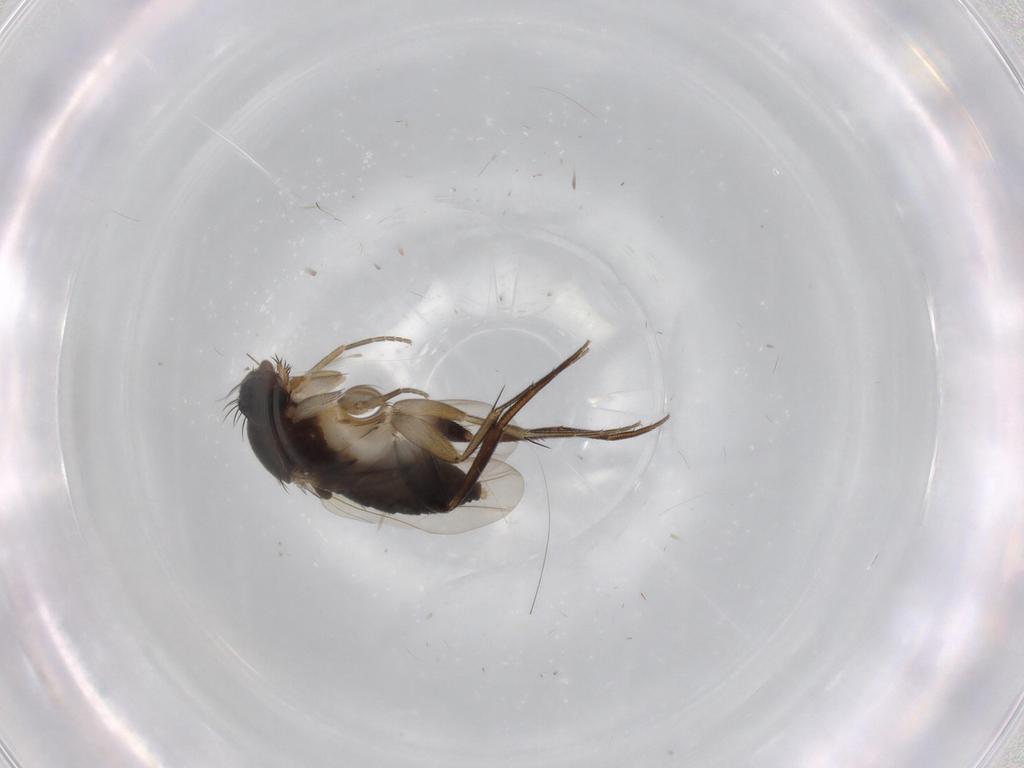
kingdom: Animalia
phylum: Arthropoda
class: Insecta
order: Diptera
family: Phoridae
